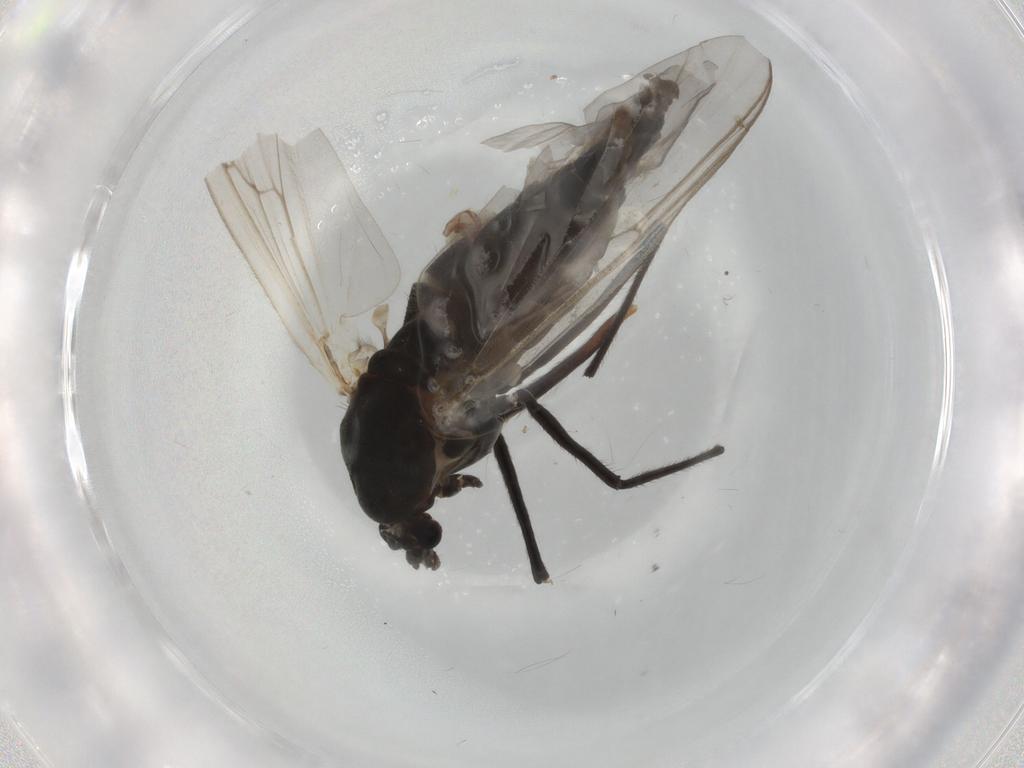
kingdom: Animalia
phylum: Arthropoda
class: Insecta
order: Diptera
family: Chironomidae
